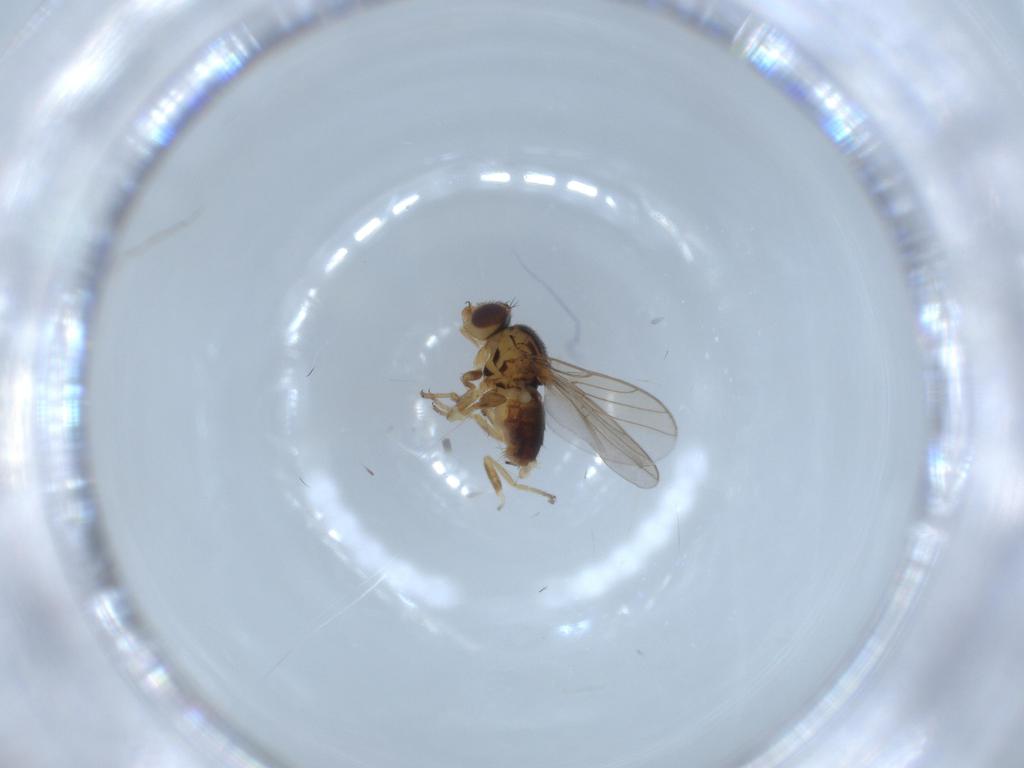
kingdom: Animalia
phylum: Arthropoda
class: Insecta
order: Diptera
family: Chloropidae
